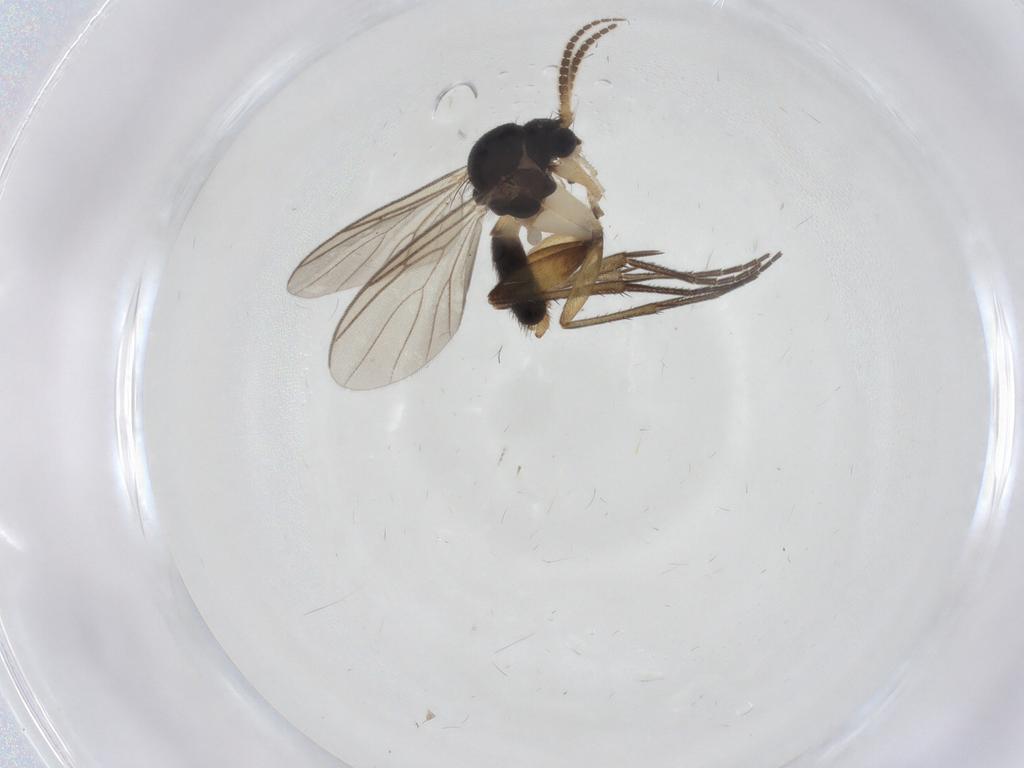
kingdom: Animalia
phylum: Arthropoda
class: Insecta
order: Diptera
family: Mycetophilidae
